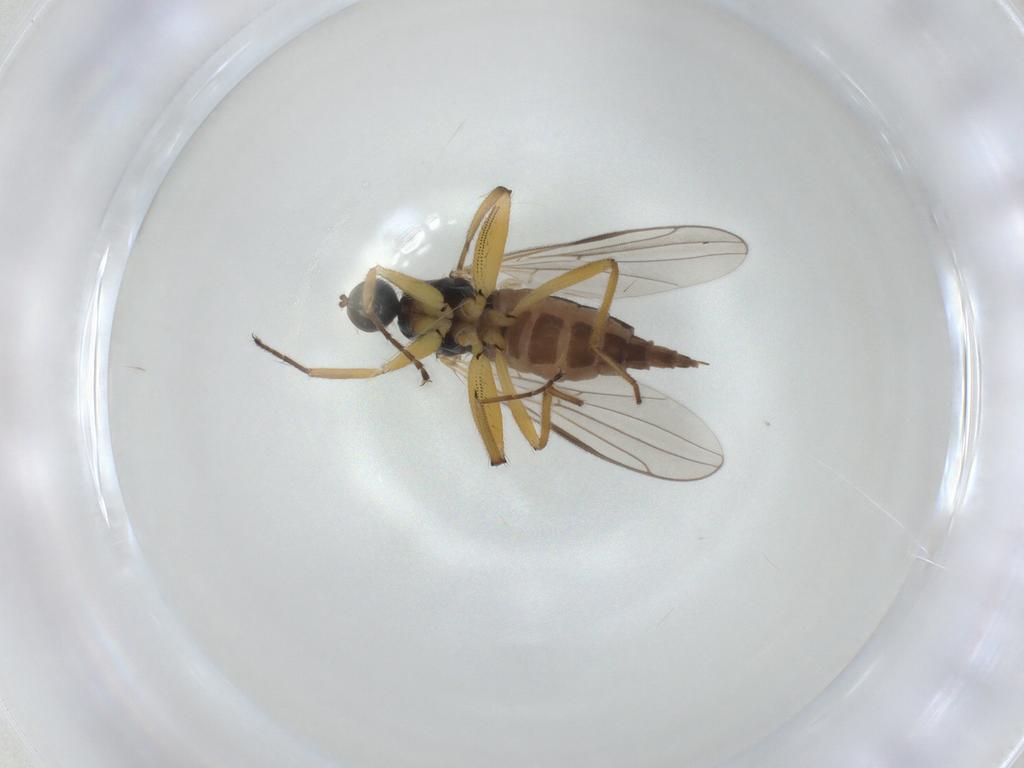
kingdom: Animalia
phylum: Arthropoda
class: Insecta
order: Diptera
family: Hybotidae
